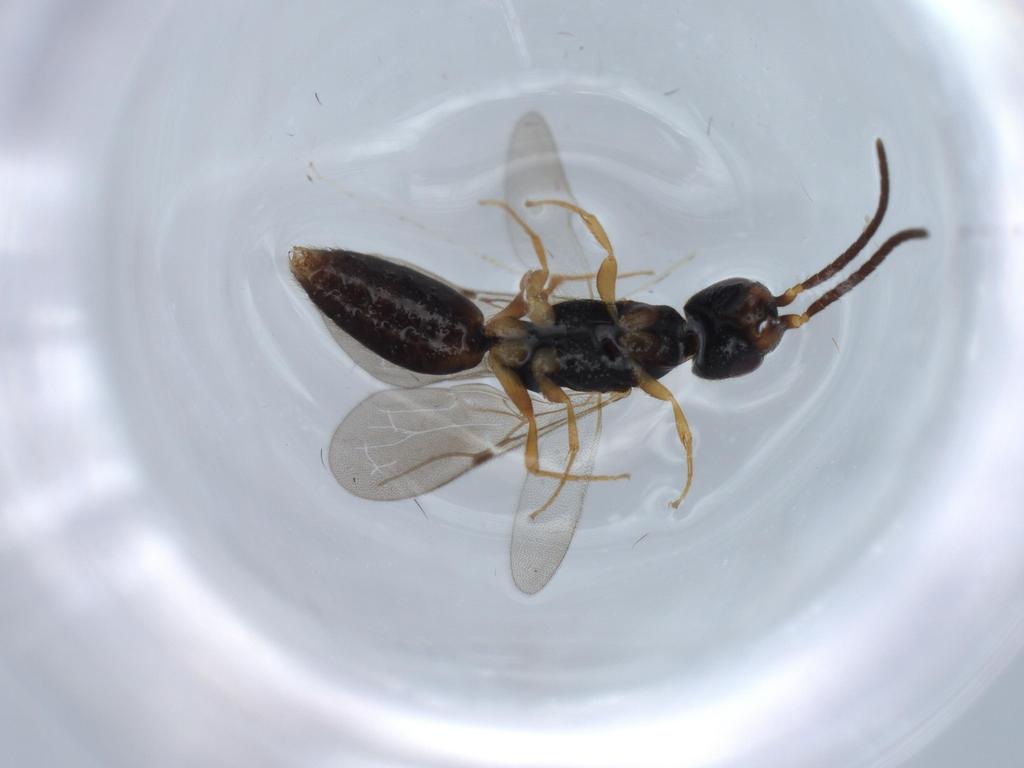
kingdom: Animalia
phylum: Arthropoda
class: Insecta
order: Hymenoptera
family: Bethylidae
